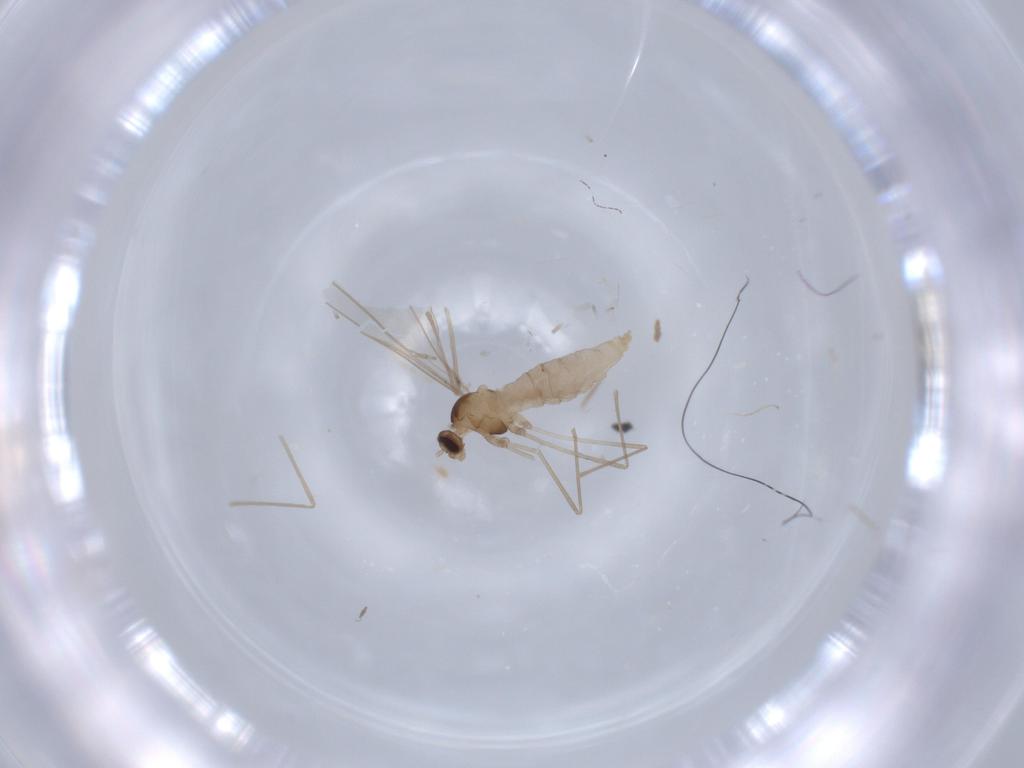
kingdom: Animalia
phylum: Arthropoda
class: Insecta
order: Diptera
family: Cecidomyiidae
